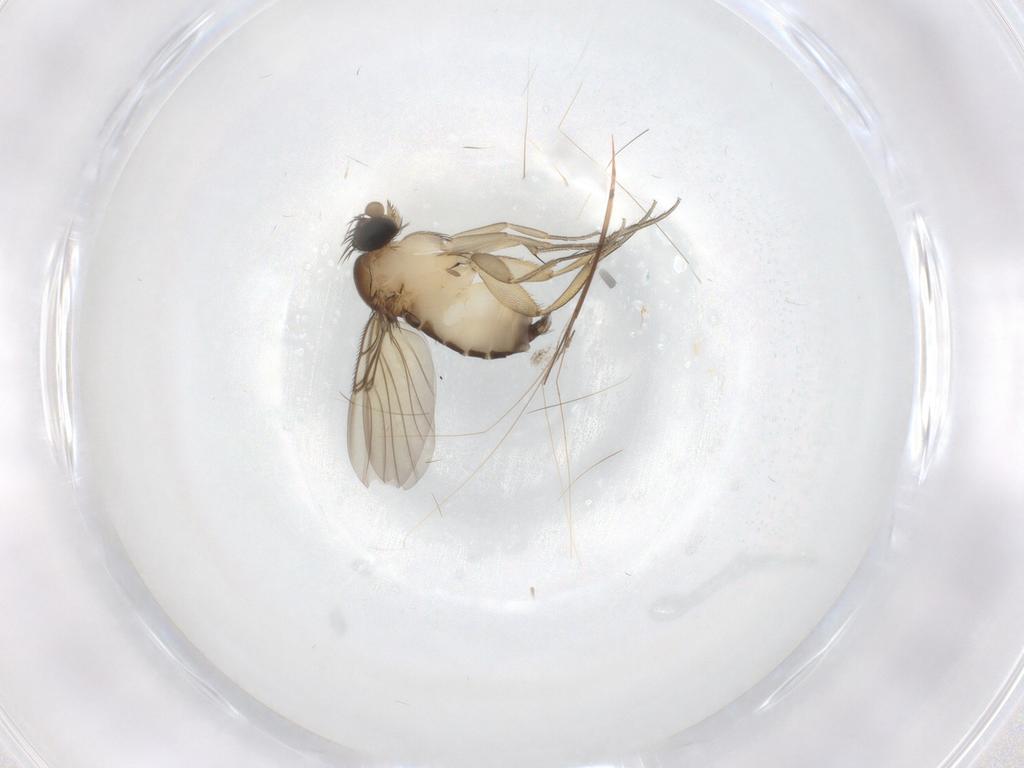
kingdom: Animalia
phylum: Arthropoda
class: Insecta
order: Diptera
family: Phoridae
